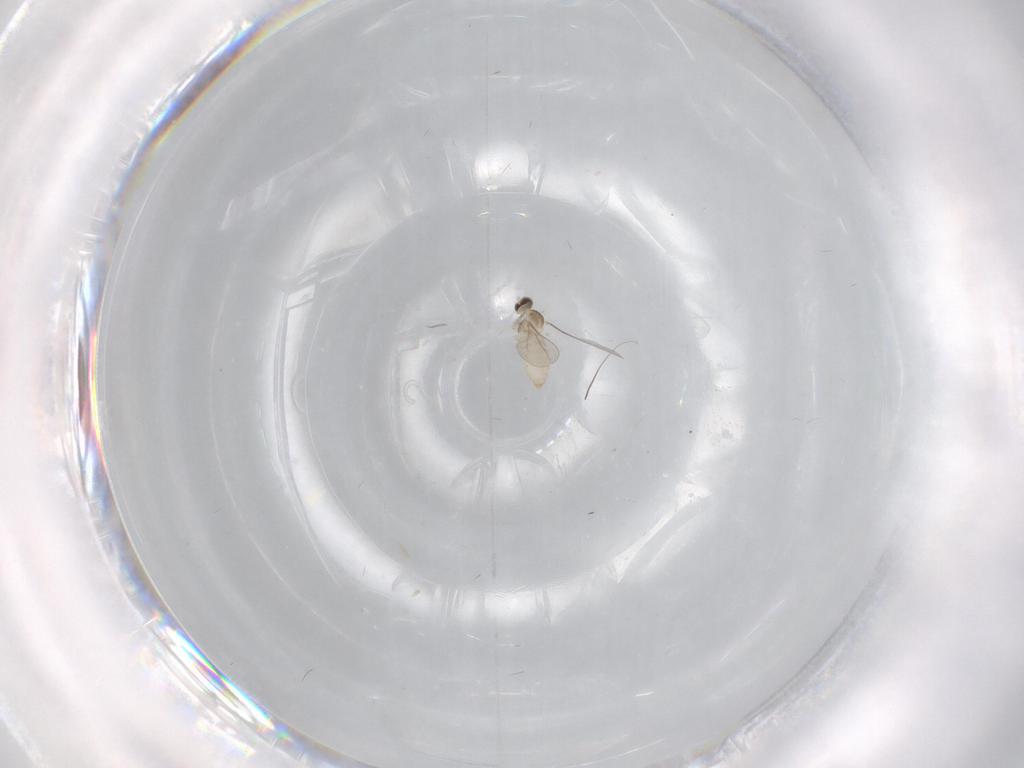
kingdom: Animalia
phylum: Arthropoda
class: Insecta
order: Diptera
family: Cecidomyiidae
